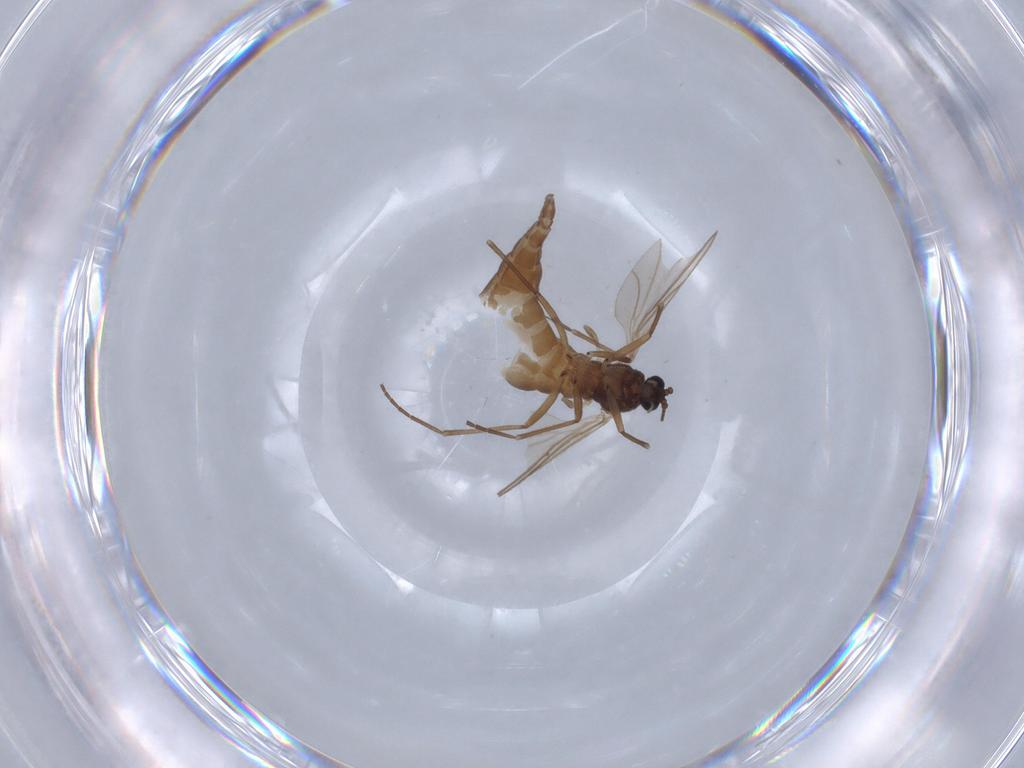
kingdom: Animalia
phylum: Arthropoda
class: Insecta
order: Diptera
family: Sciaridae
